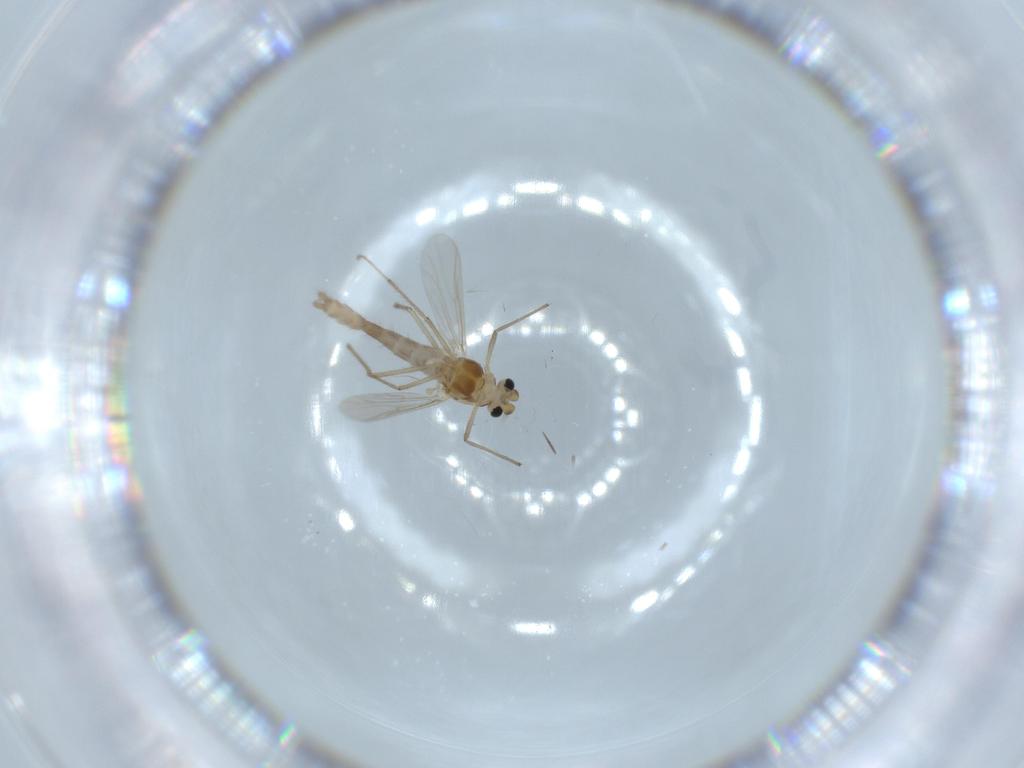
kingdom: Animalia
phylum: Arthropoda
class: Insecta
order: Diptera
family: Chironomidae
